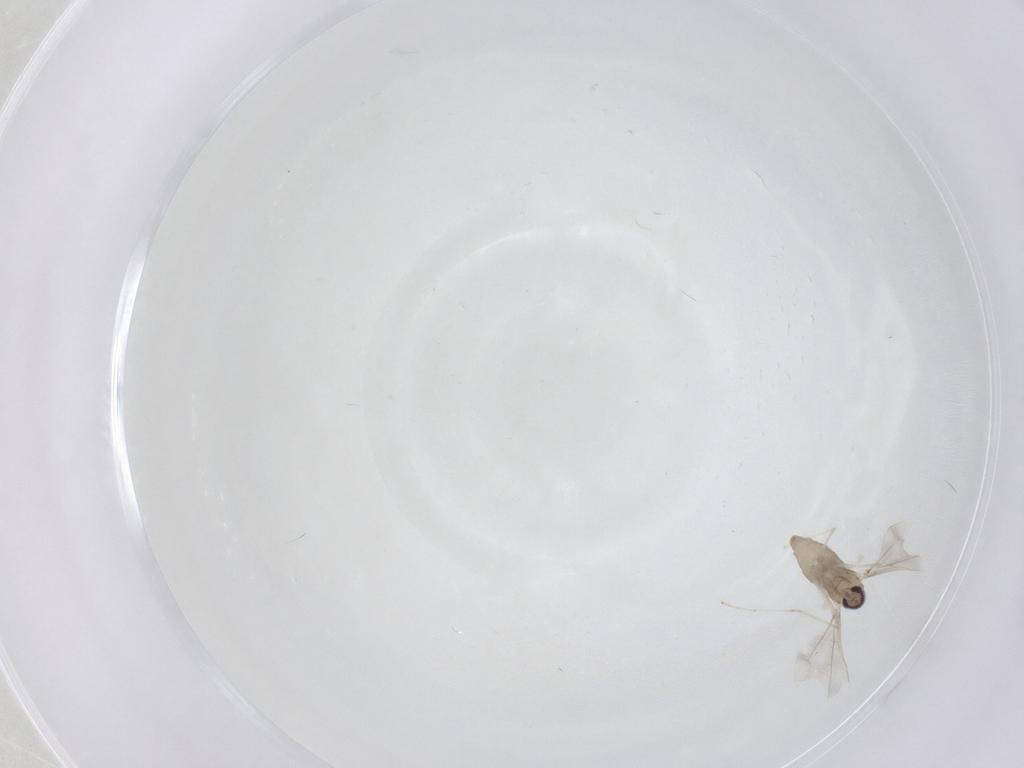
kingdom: Animalia
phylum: Arthropoda
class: Insecta
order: Diptera
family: Cecidomyiidae
